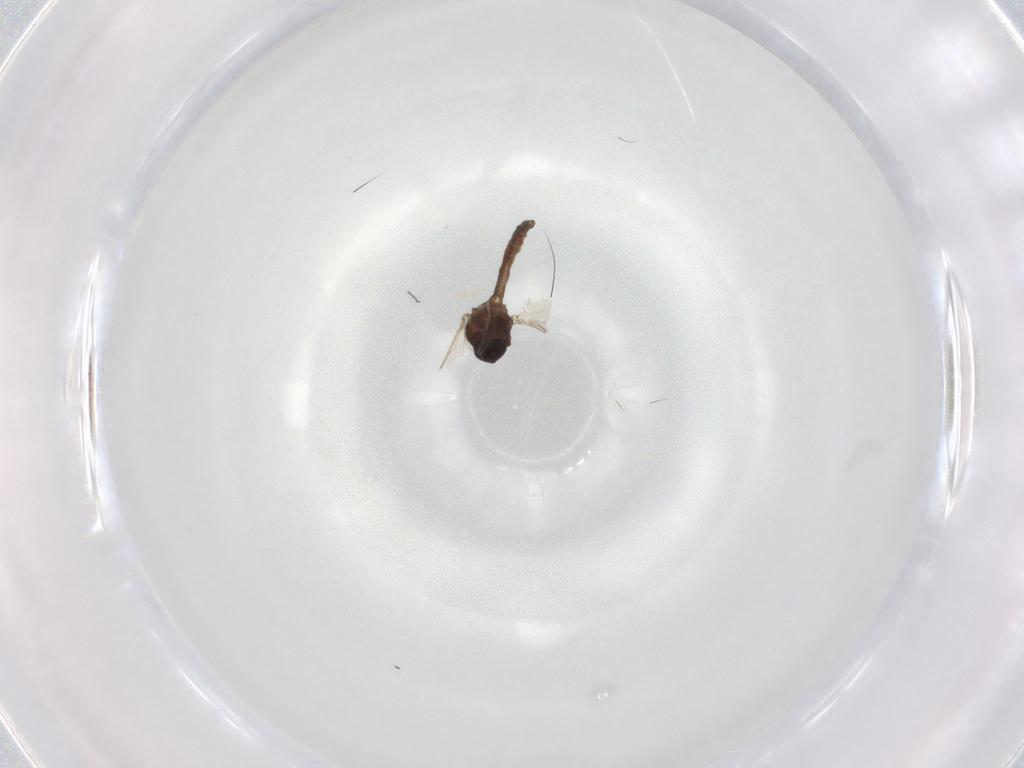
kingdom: Animalia
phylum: Arthropoda
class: Insecta
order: Diptera
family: Ceratopogonidae
